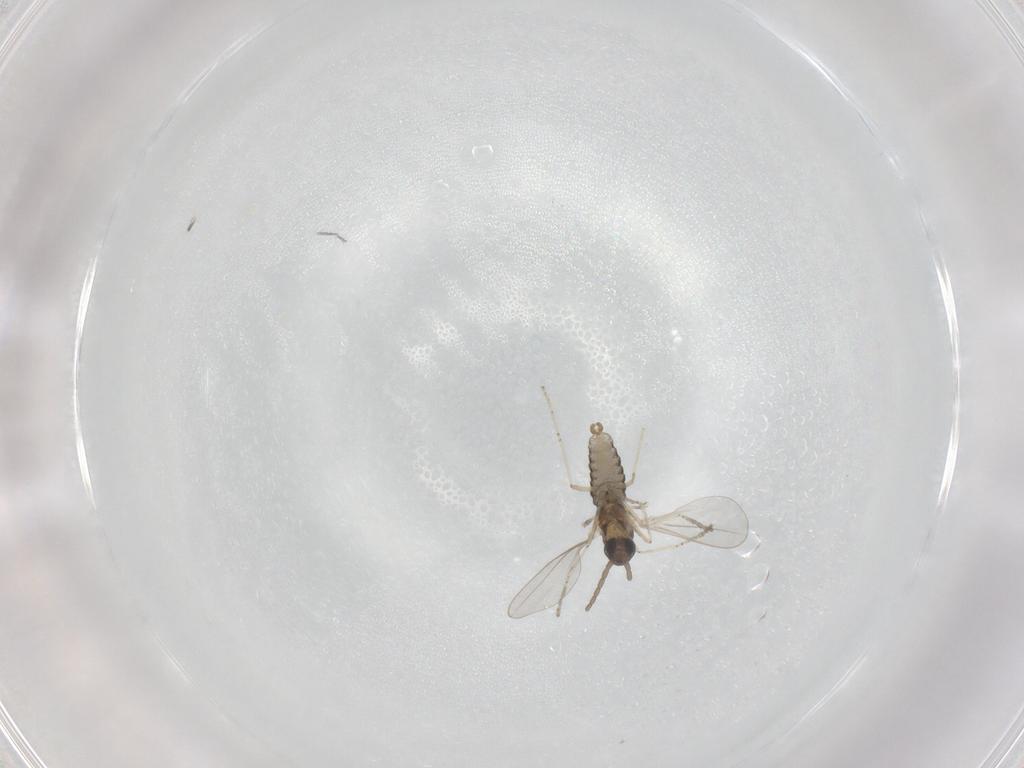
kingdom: Animalia
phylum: Arthropoda
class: Insecta
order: Diptera
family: Cecidomyiidae
